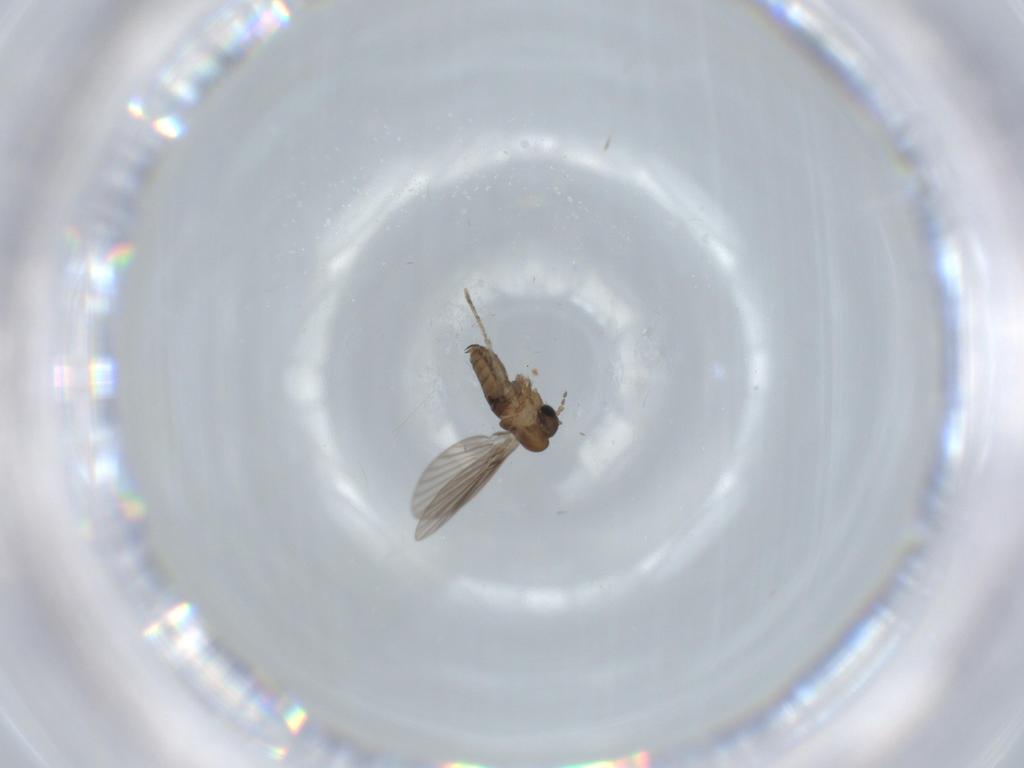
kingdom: Animalia
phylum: Arthropoda
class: Insecta
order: Diptera
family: Psychodidae
